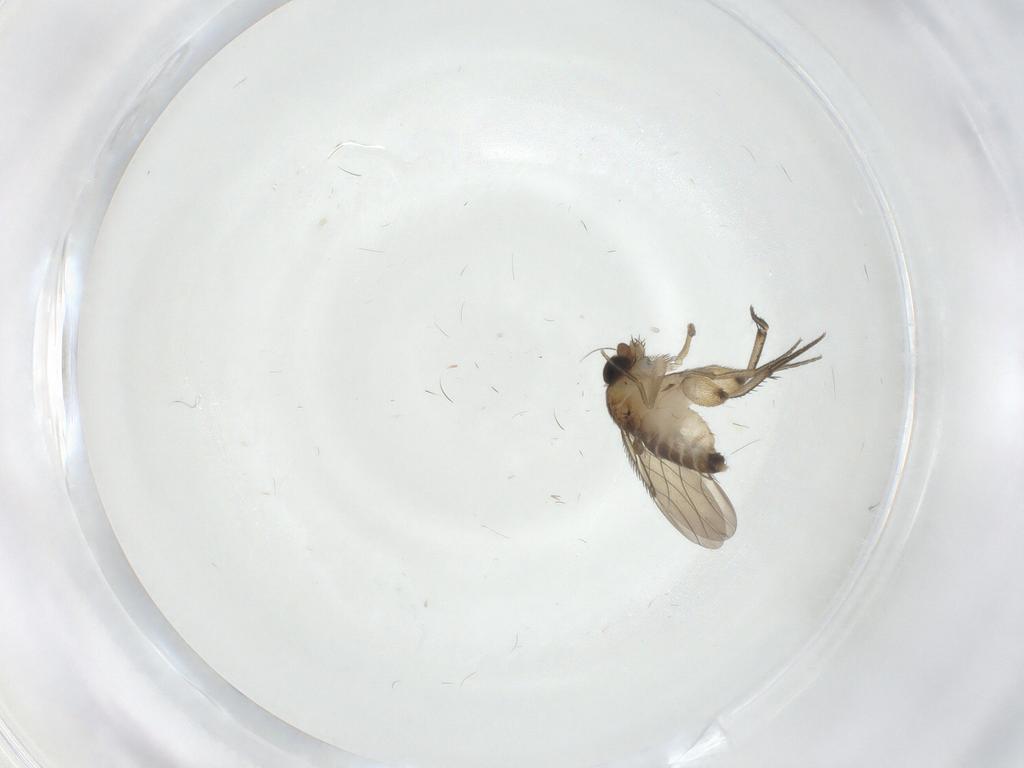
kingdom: Animalia
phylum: Arthropoda
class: Insecta
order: Diptera
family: Phoridae
